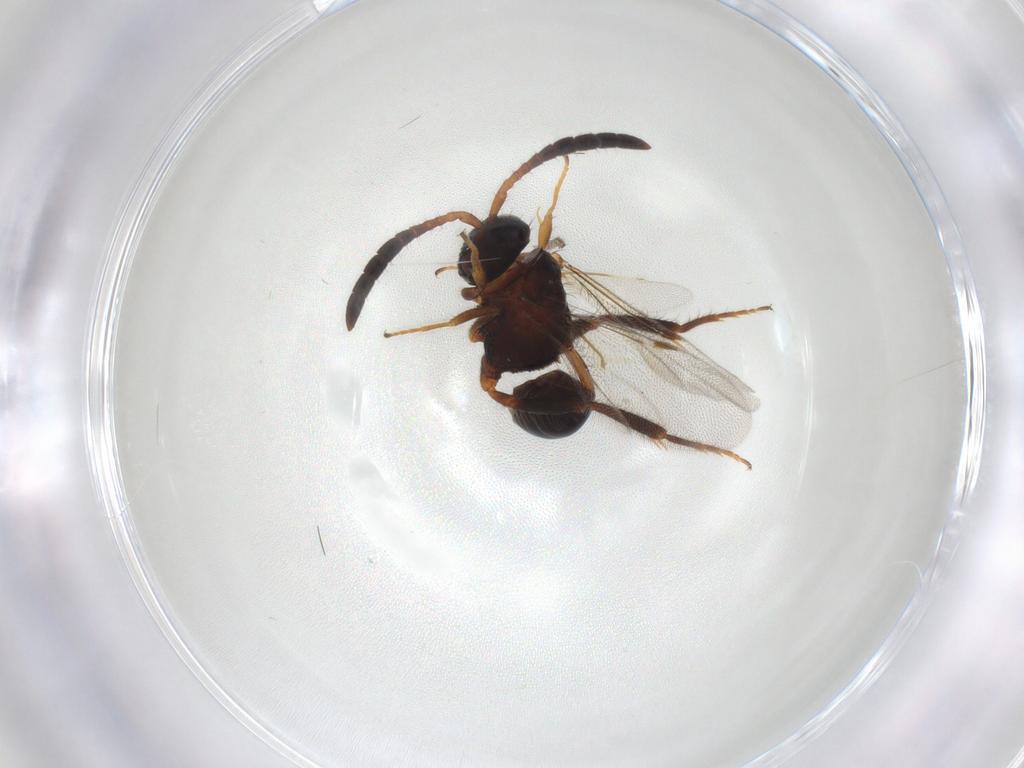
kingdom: Animalia
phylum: Arthropoda
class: Insecta
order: Hymenoptera
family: Evaniidae
